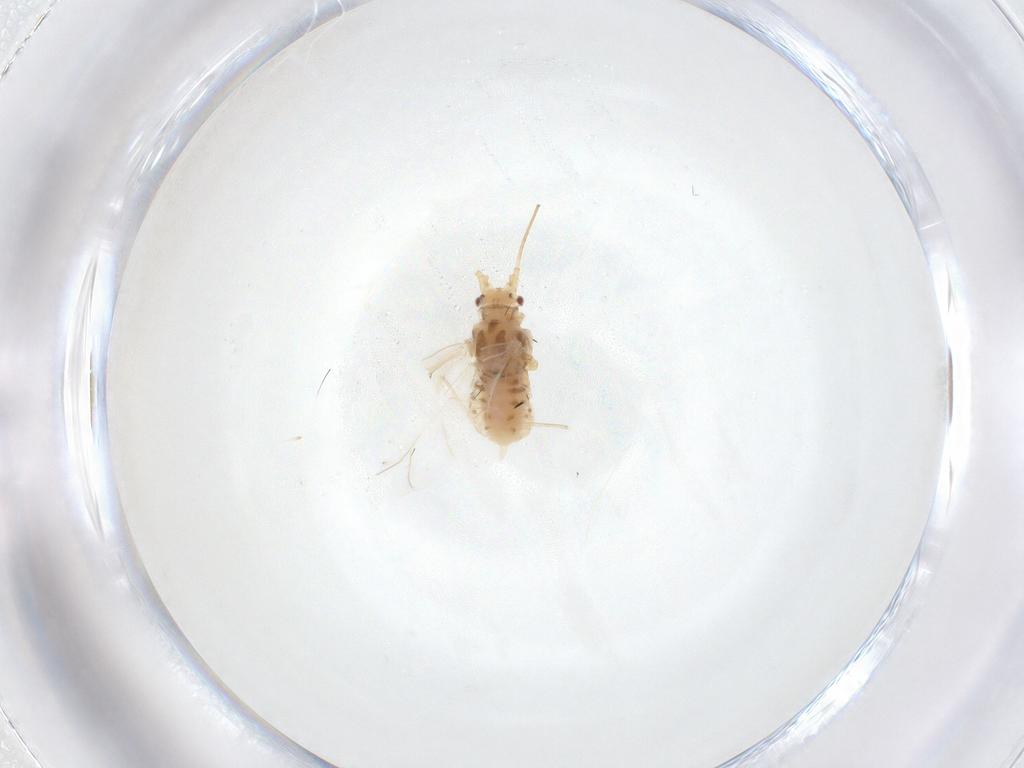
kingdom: Animalia
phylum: Arthropoda
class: Insecta
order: Hemiptera
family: Aphididae
